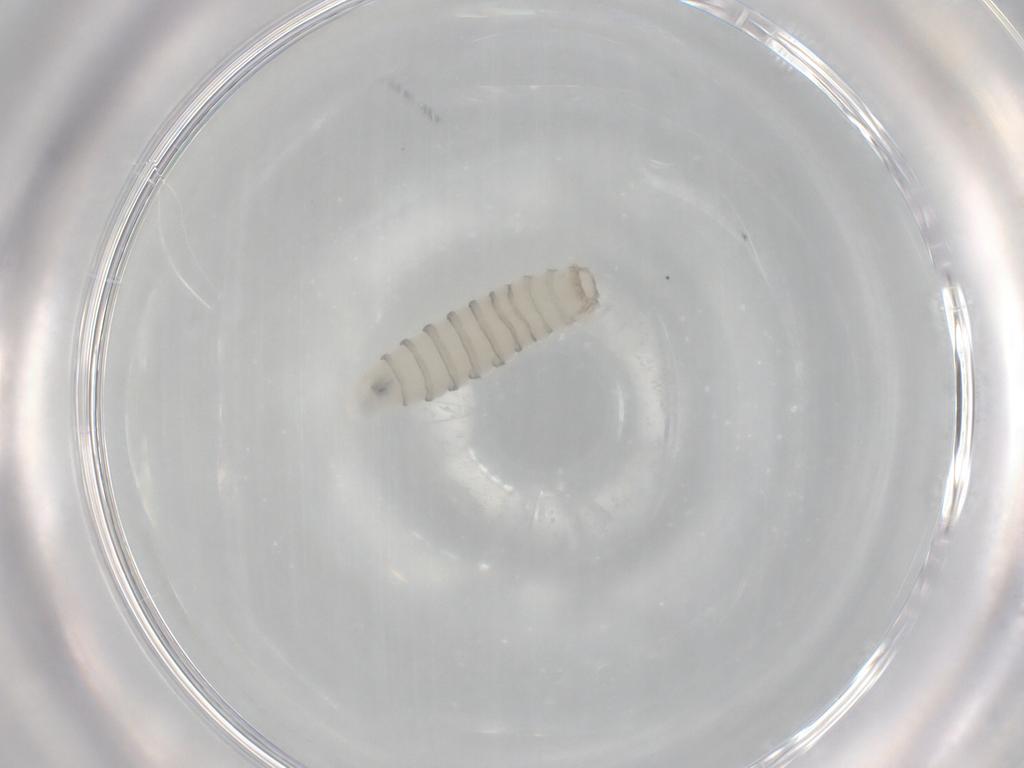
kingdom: Animalia
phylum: Arthropoda
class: Insecta
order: Diptera
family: Sarcophagidae
